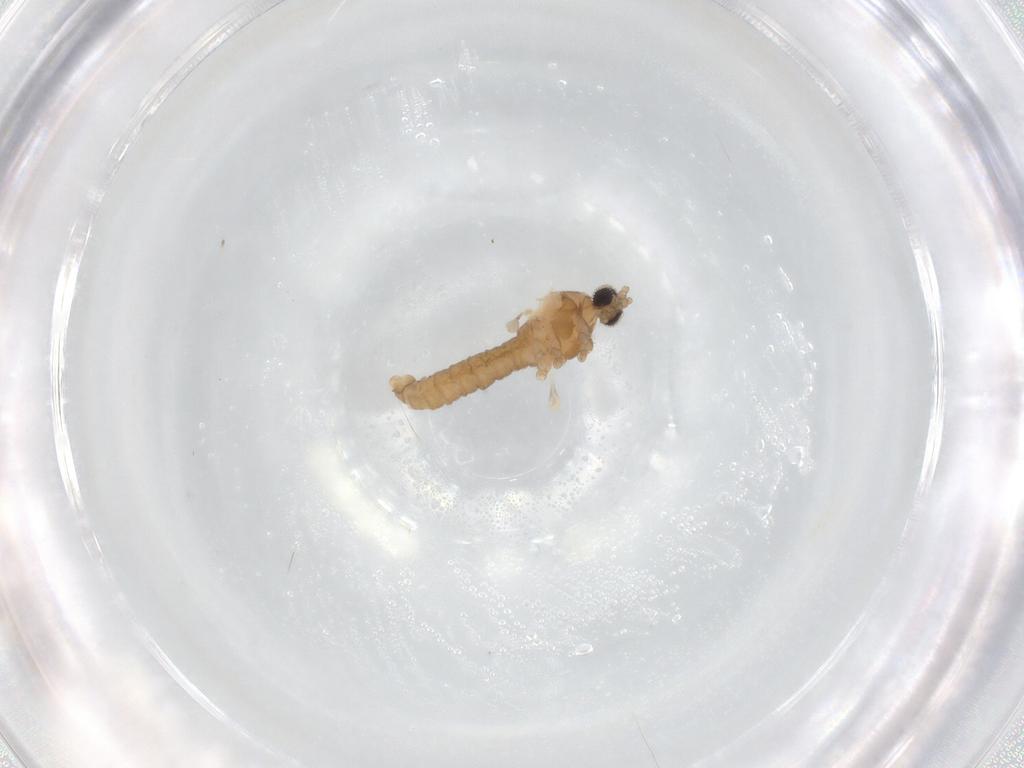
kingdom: Animalia
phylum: Arthropoda
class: Insecta
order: Diptera
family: Cecidomyiidae
